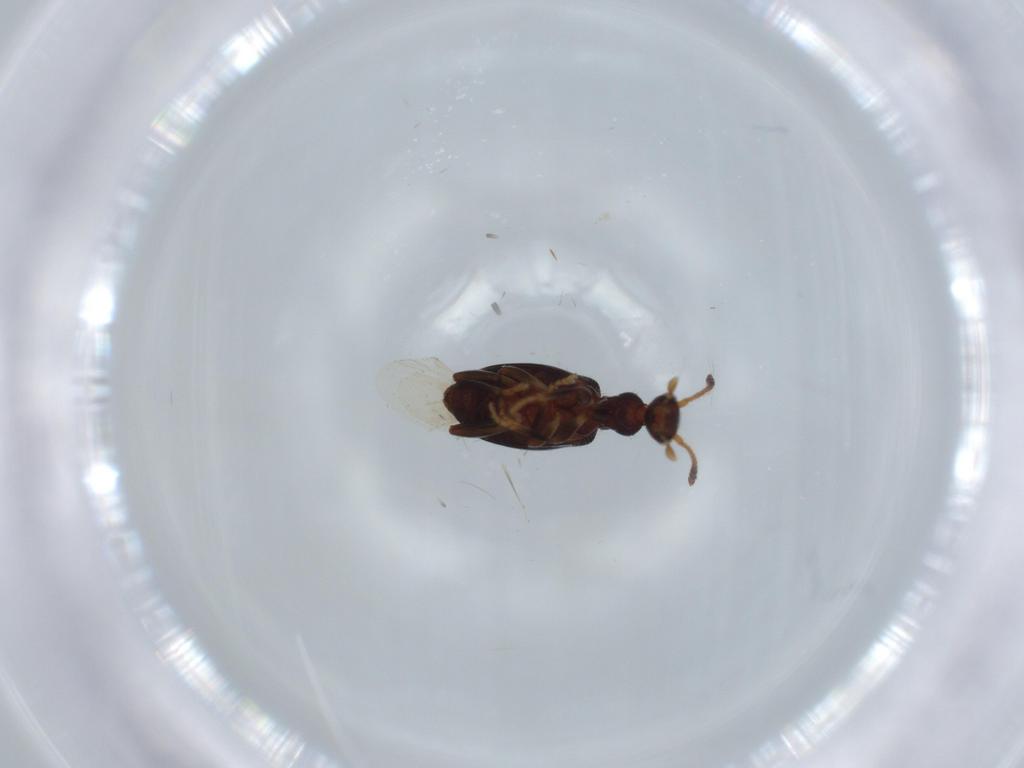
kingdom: Animalia
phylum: Arthropoda
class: Insecta
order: Coleoptera
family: Anthicidae
